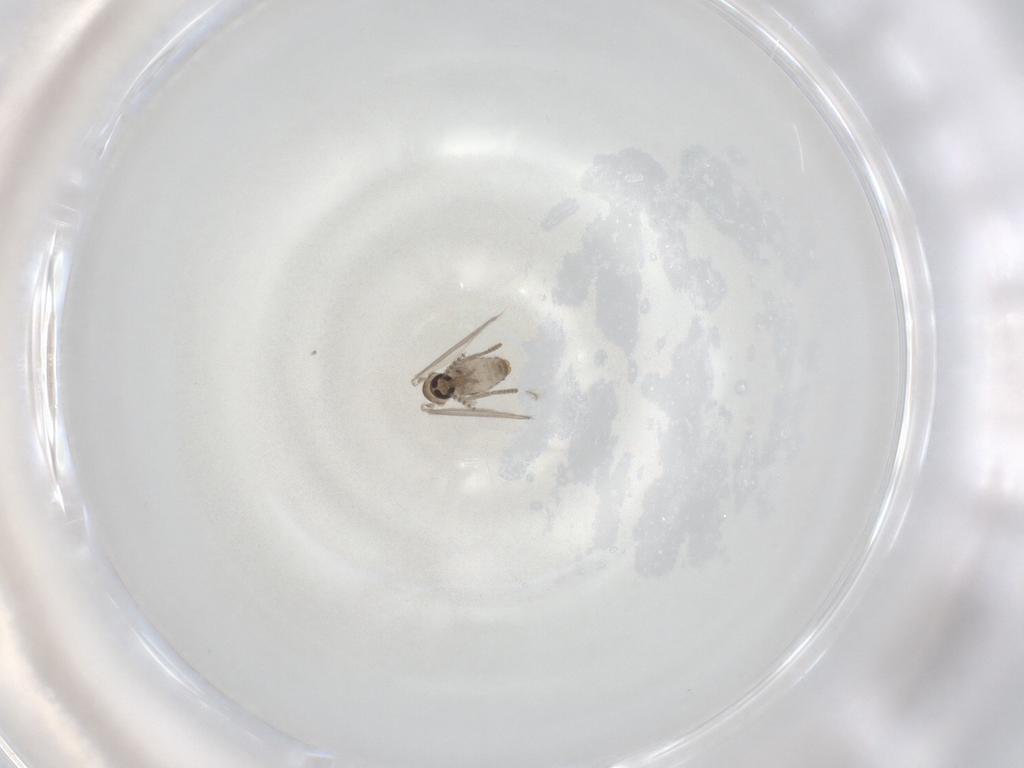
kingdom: Animalia
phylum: Arthropoda
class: Insecta
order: Diptera
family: Psychodidae
